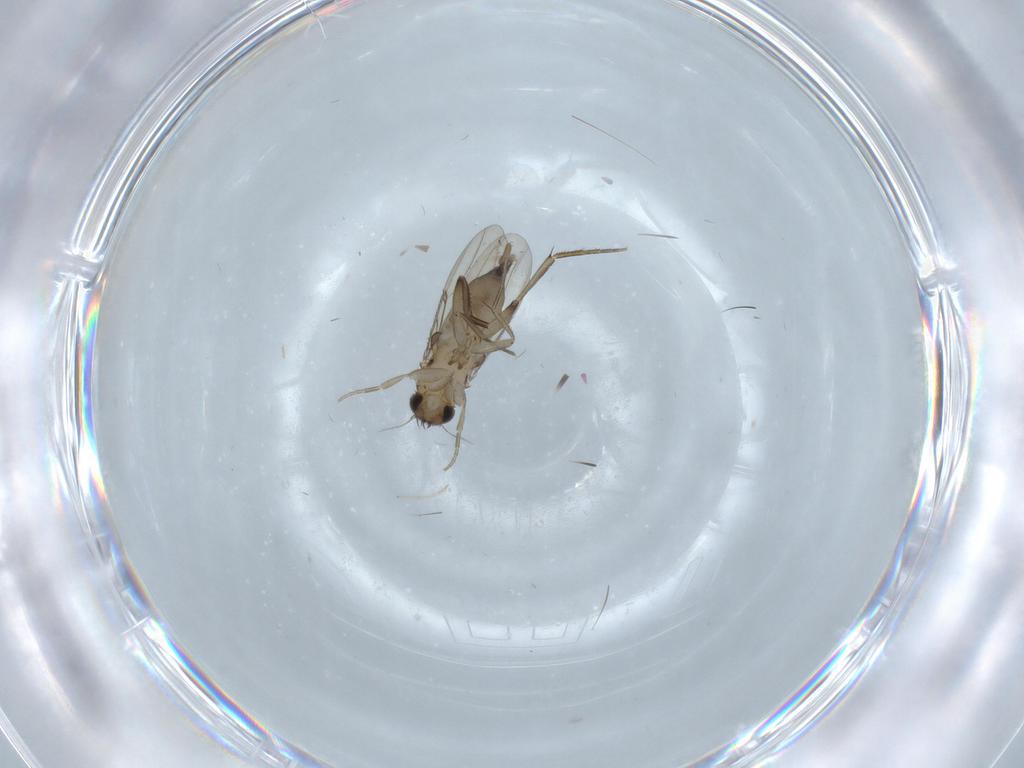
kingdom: Animalia
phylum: Arthropoda
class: Insecta
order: Diptera
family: Phoridae
